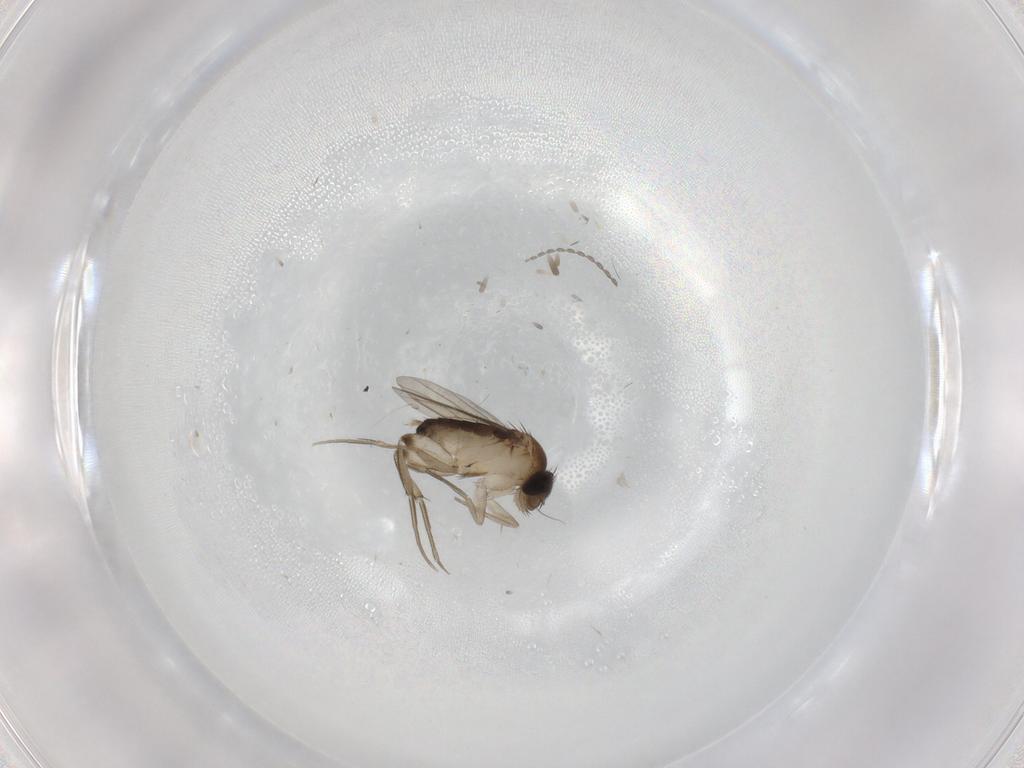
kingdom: Animalia
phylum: Arthropoda
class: Insecta
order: Diptera
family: Phoridae
